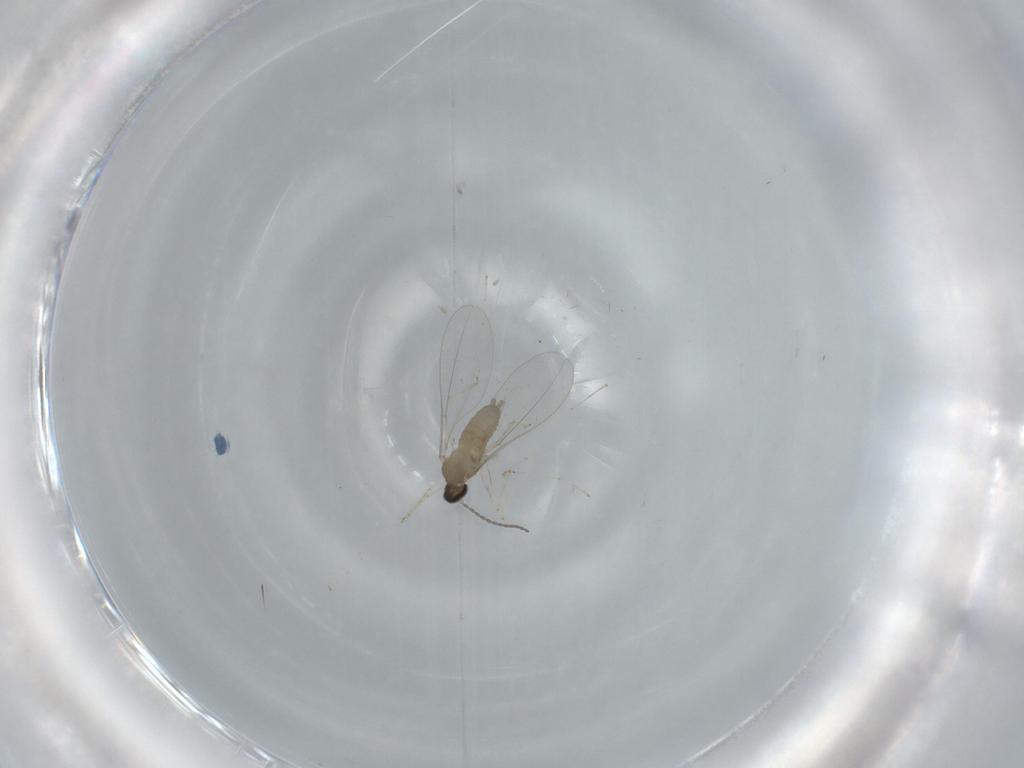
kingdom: Animalia
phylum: Arthropoda
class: Insecta
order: Diptera
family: Cecidomyiidae
